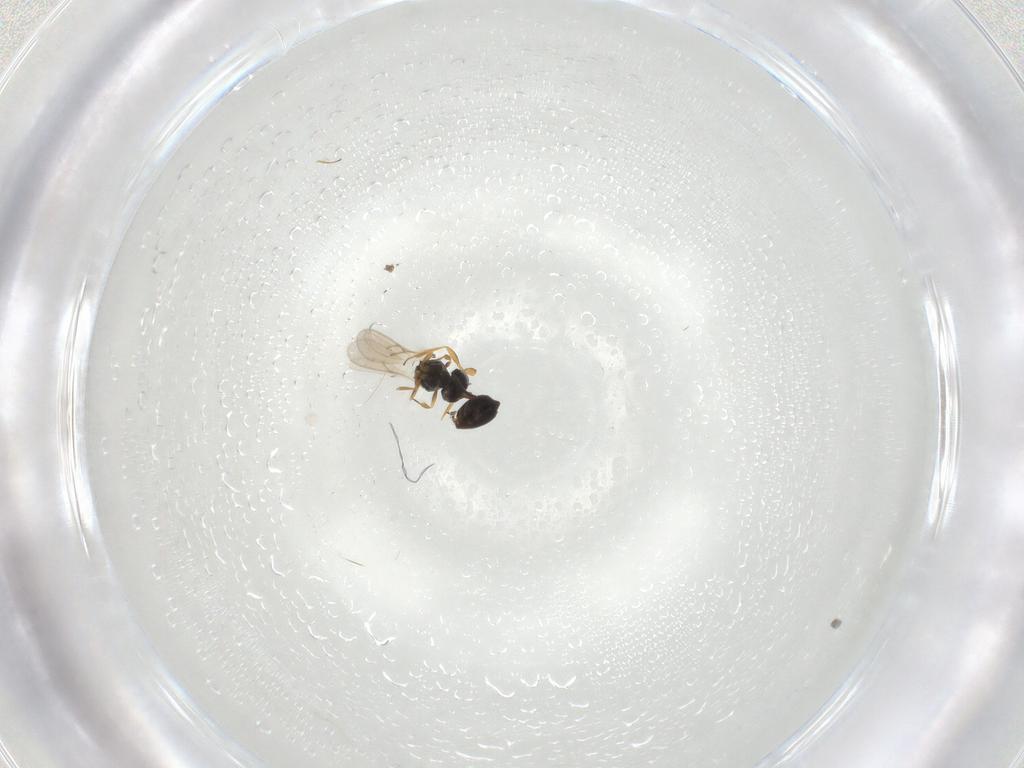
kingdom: Animalia
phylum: Arthropoda
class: Insecta
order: Hymenoptera
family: Scelionidae
